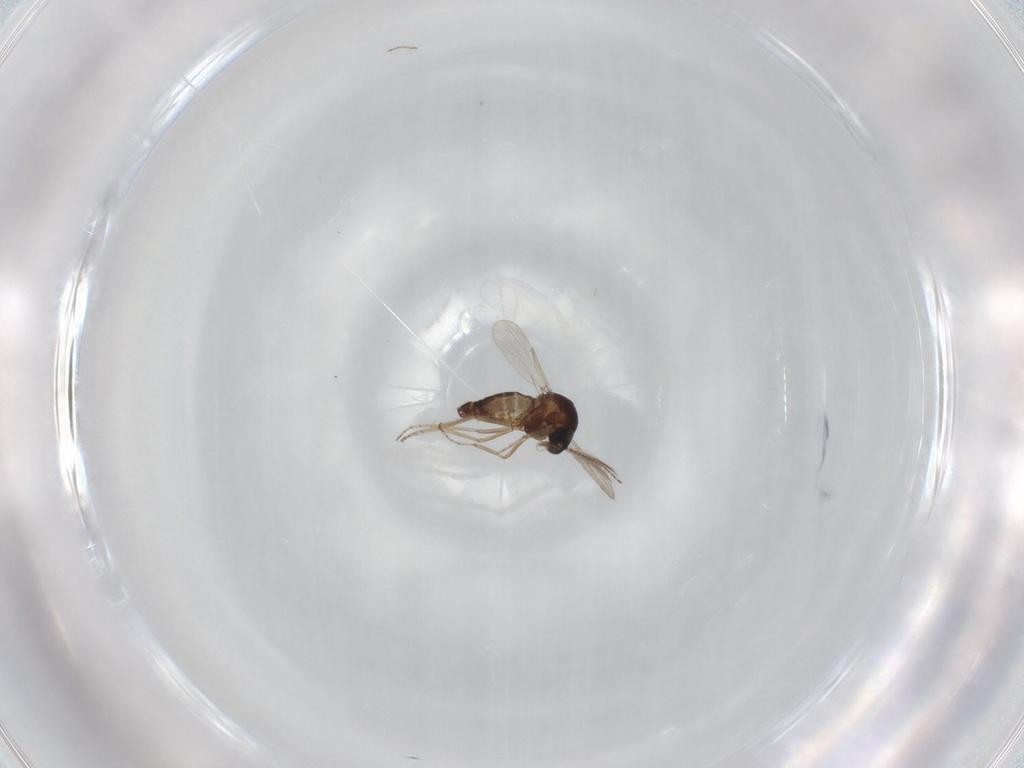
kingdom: Animalia
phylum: Arthropoda
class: Insecta
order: Diptera
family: Ceratopogonidae
